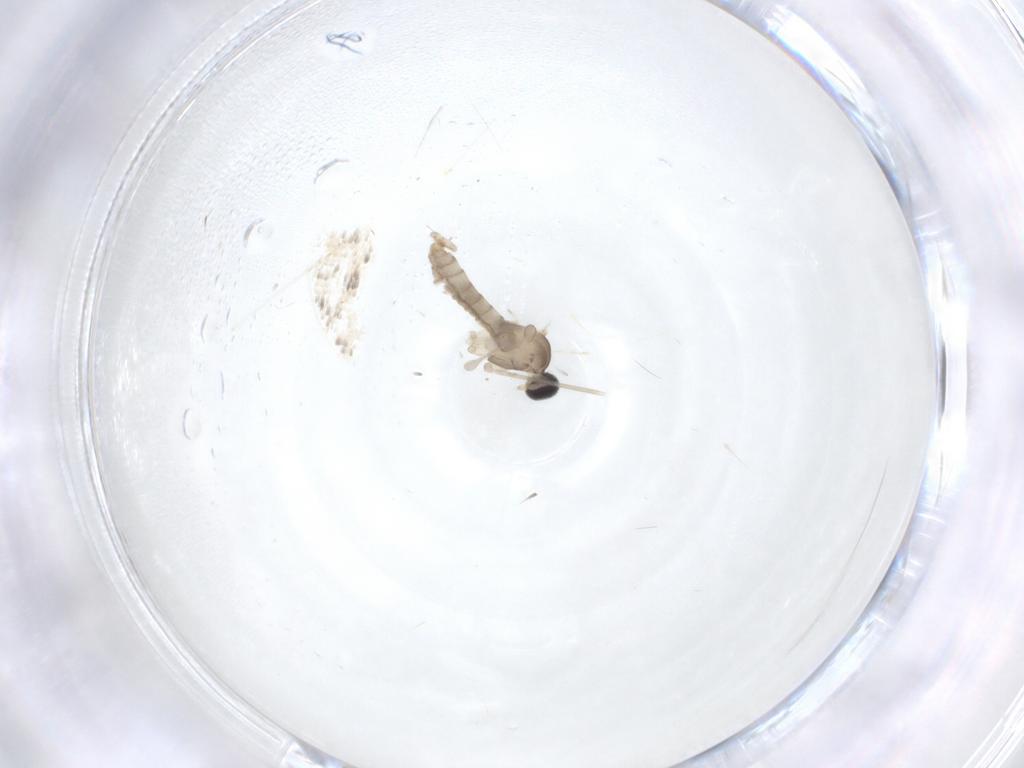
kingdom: Animalia
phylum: Arthropoda
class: Insecta
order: Diptera
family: Cecidomyiidae
